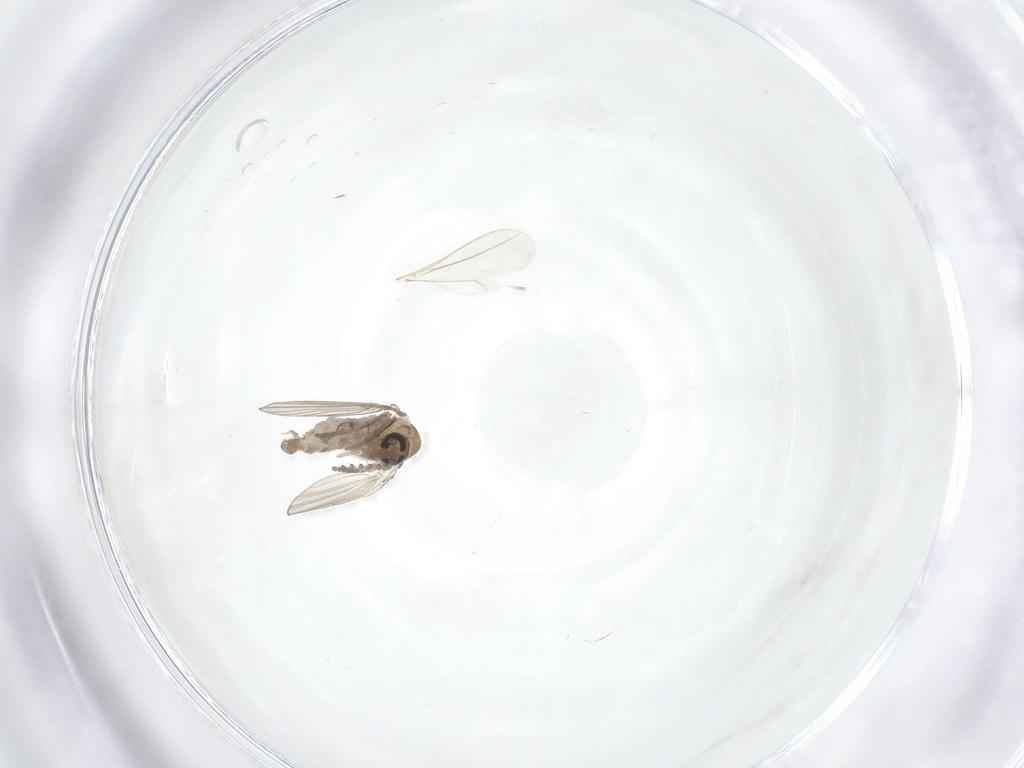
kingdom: Animalia
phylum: Arthropoda
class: Insecta
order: Diptera
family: Psychodidae
